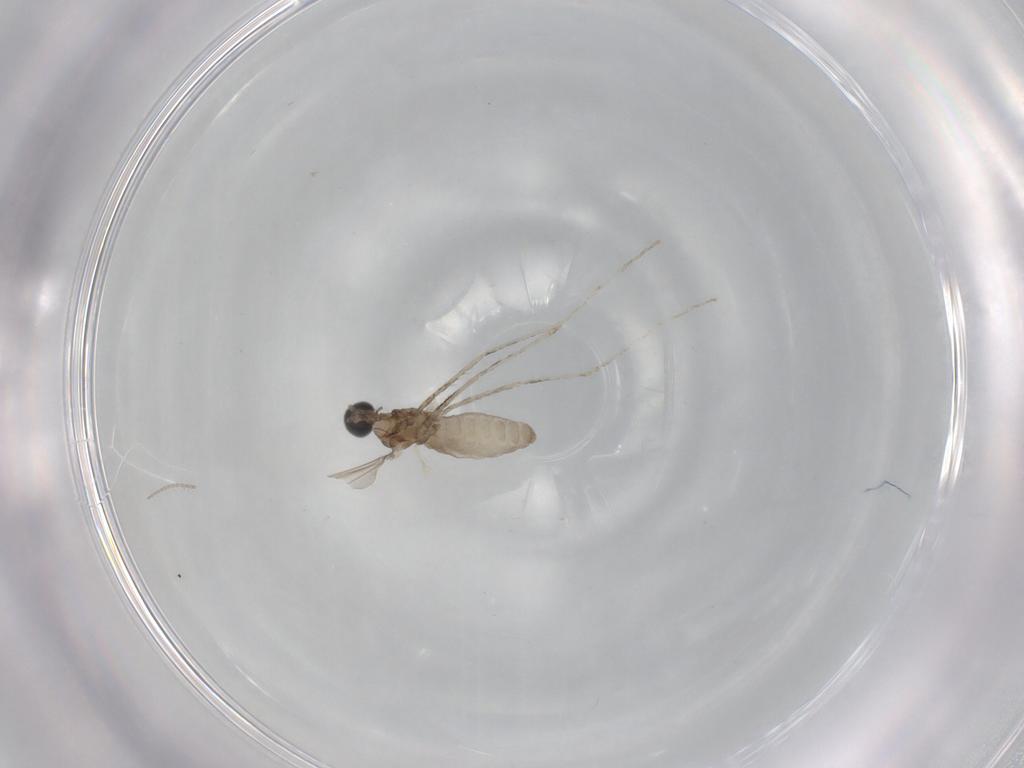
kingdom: Animalia
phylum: Arthropoda
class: Insecta
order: Diptera
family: Cecidomyiidae
